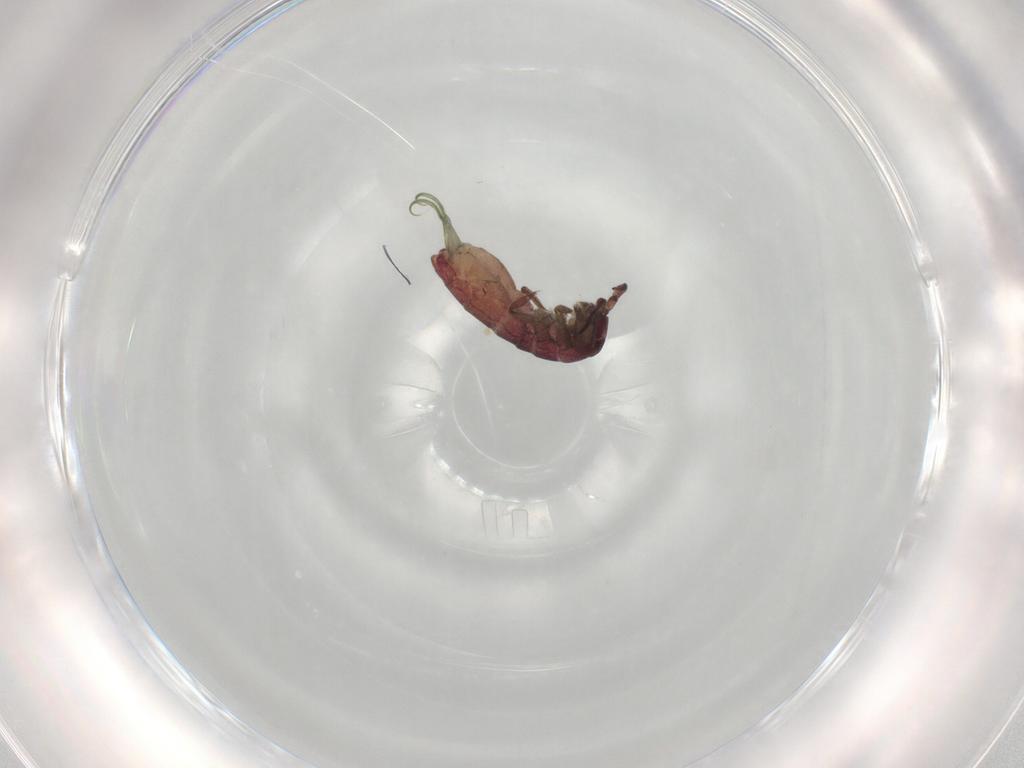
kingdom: Animalia
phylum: Arthropoda
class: Collembola
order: Entomobryomorpha
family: Isotomidae
